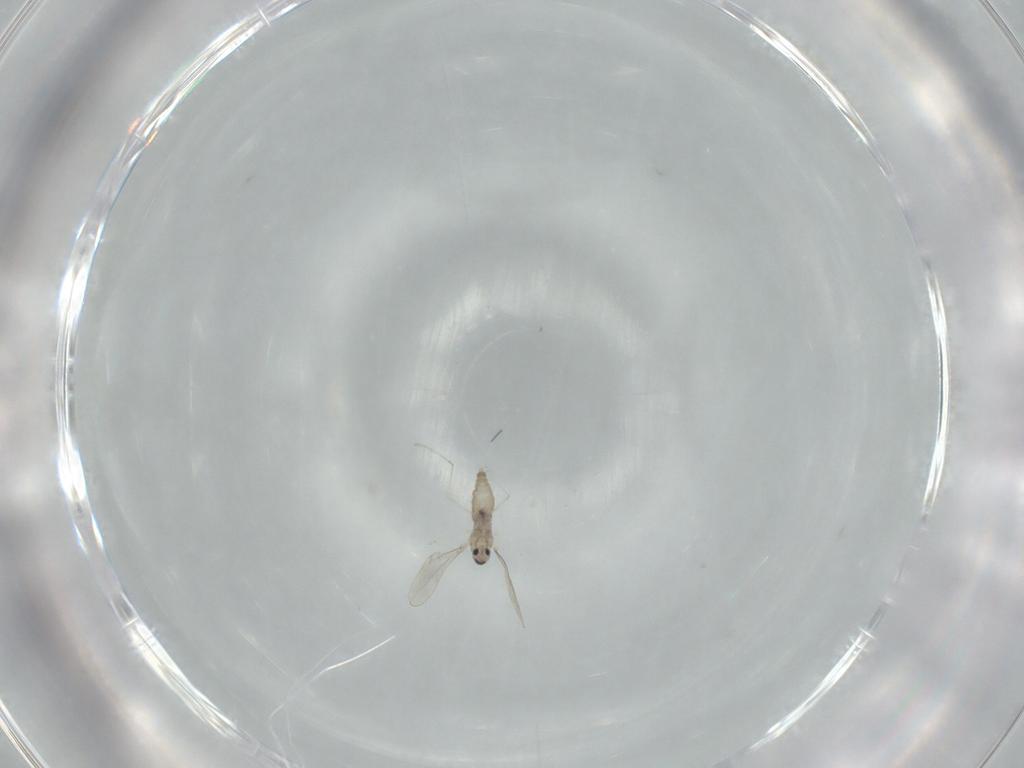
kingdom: Animalia
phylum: Arthropoda
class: Insecta
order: Diptera
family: Cecidomyiidae
